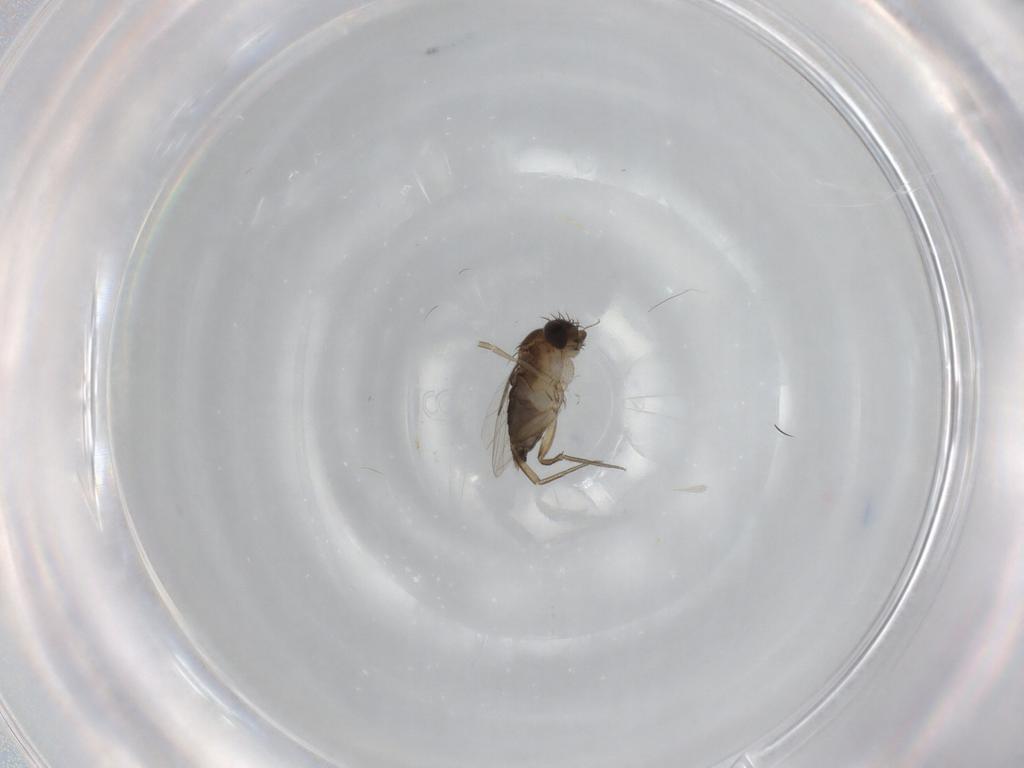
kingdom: Animalia
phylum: Arthropoda
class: Insecta
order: Diptera
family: Phoridae
